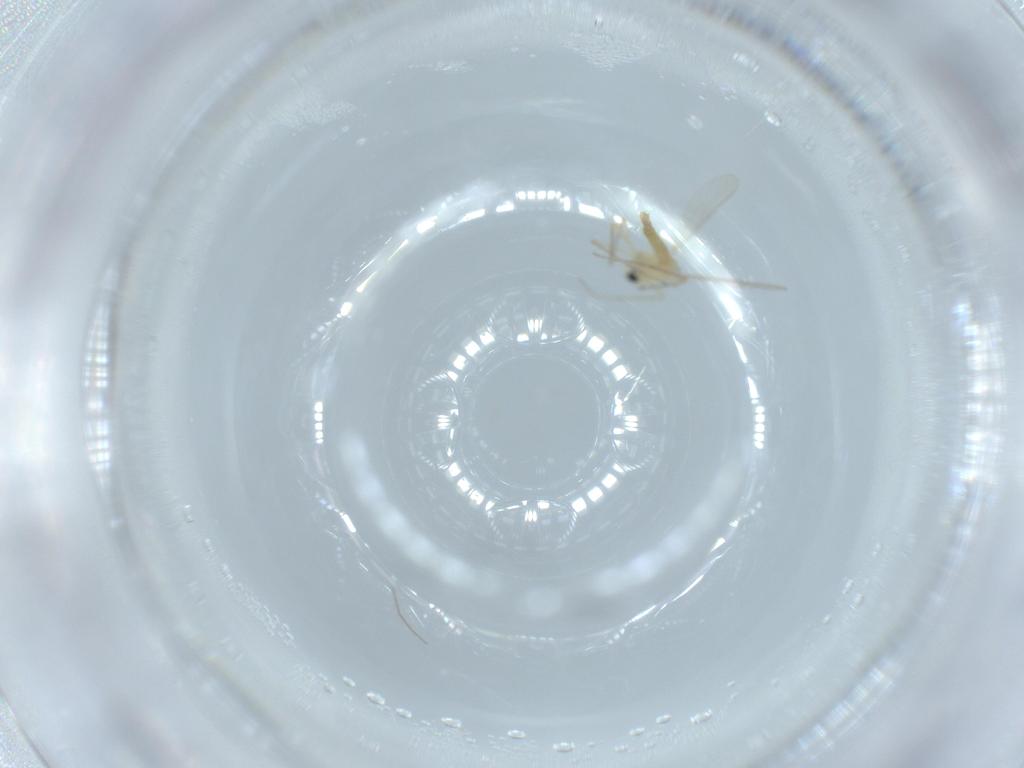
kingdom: Animalia
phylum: Arthropoda
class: Insecta
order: Diptera
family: Chironomidae
